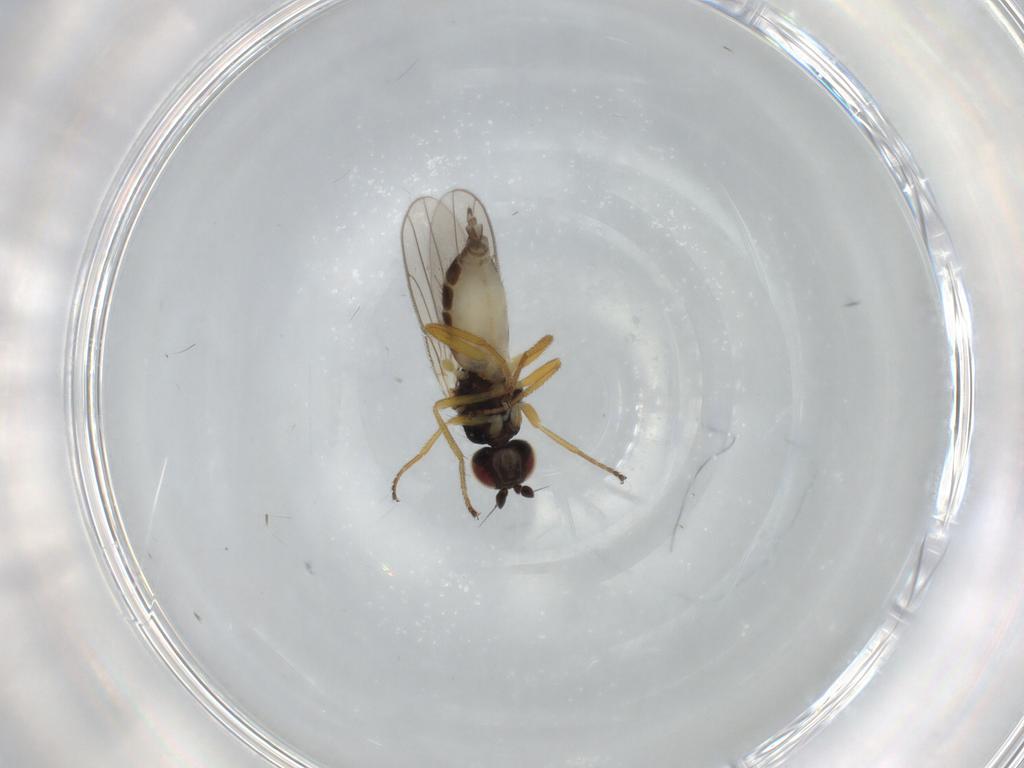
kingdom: Animalia
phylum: Arthropoda
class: Insecta
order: Diptera
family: Chloropidae
